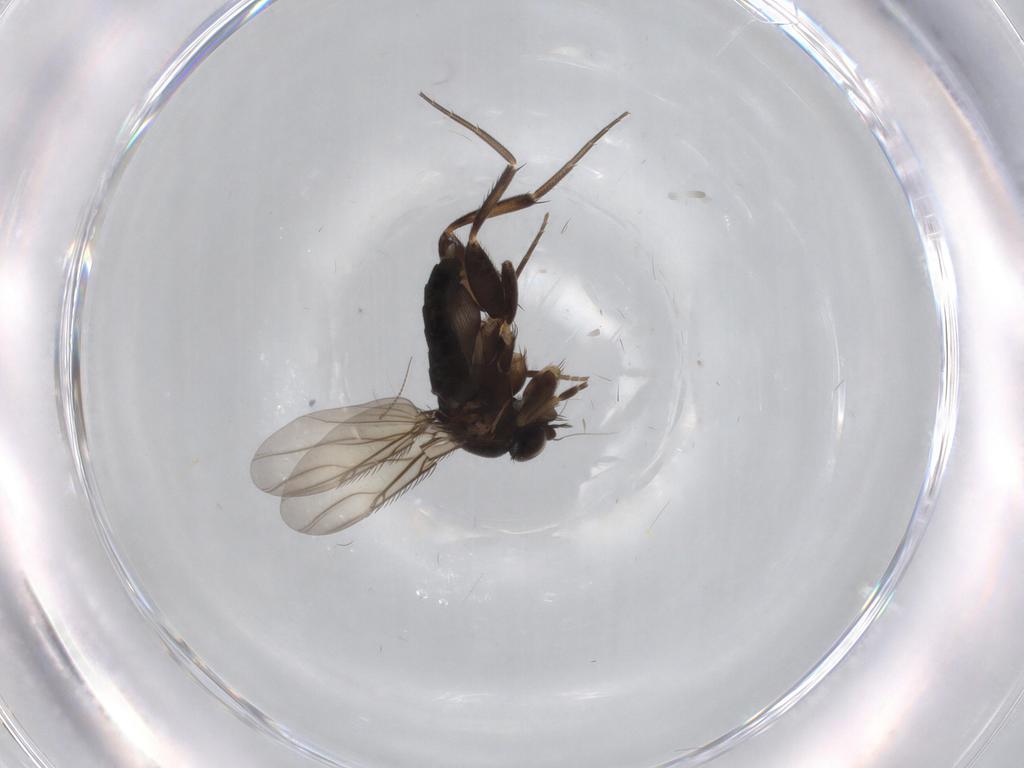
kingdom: Animalia
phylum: Arthropoda
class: Insecta
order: Diptera
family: Phoridae
